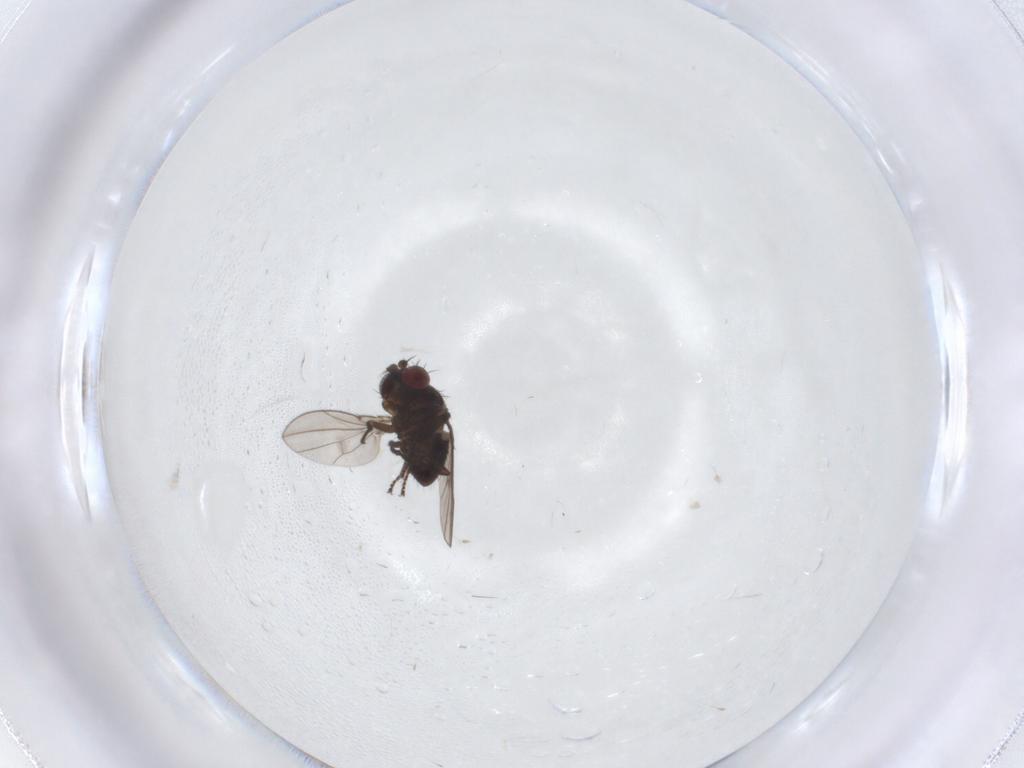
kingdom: Animalia
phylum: Arthropoda
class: Insecta
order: Diptera
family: Ephydridae
